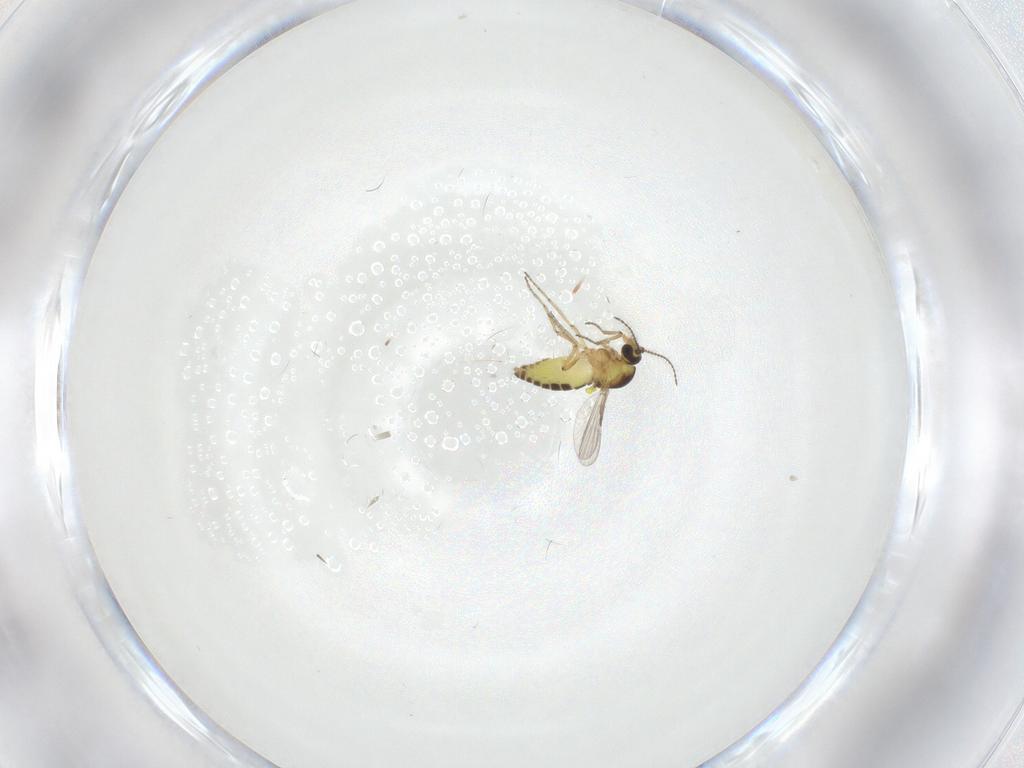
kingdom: Animalia
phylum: Arthropoda
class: Insecta
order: Diptera
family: Ceratopogonidae
